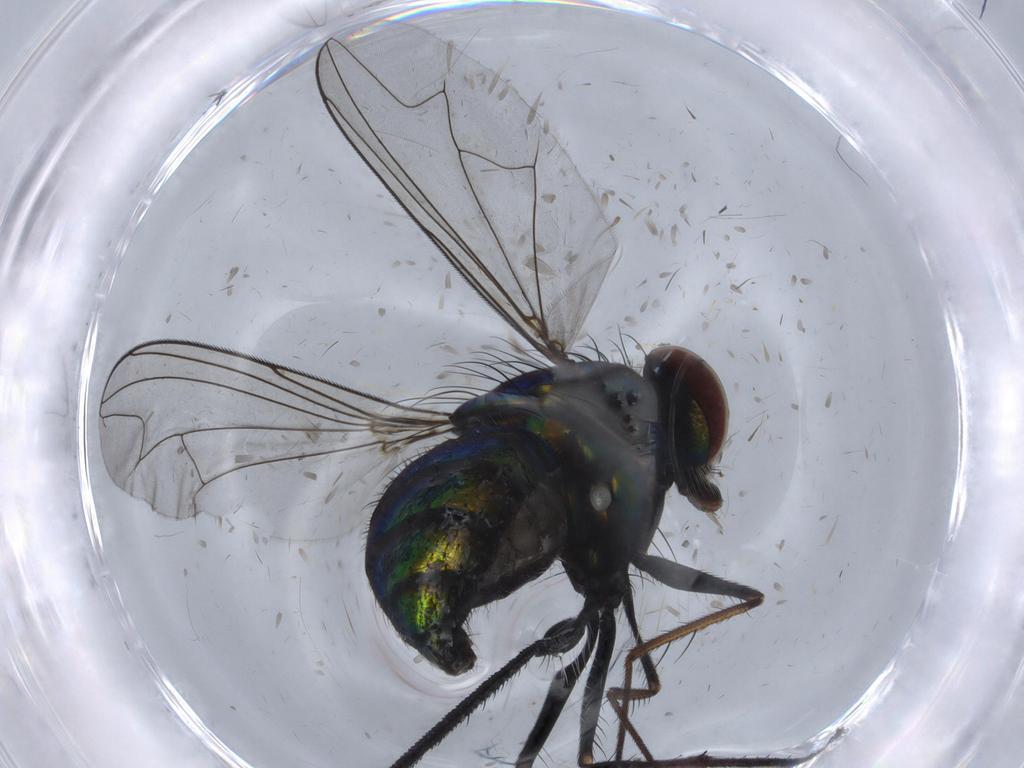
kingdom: Animalia
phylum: Arthropoda
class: Insecta
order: Diptera
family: Dolichopodidae
